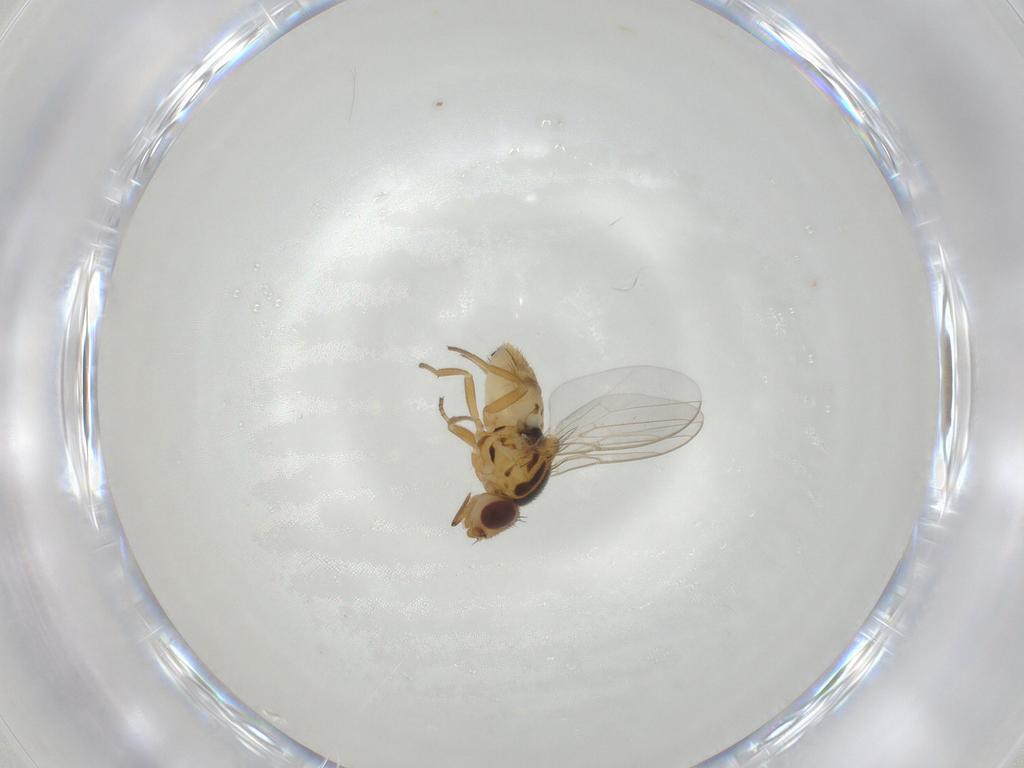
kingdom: Animalia
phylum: Arthropoda
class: Insecta
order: Diptera
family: Chloropidae
